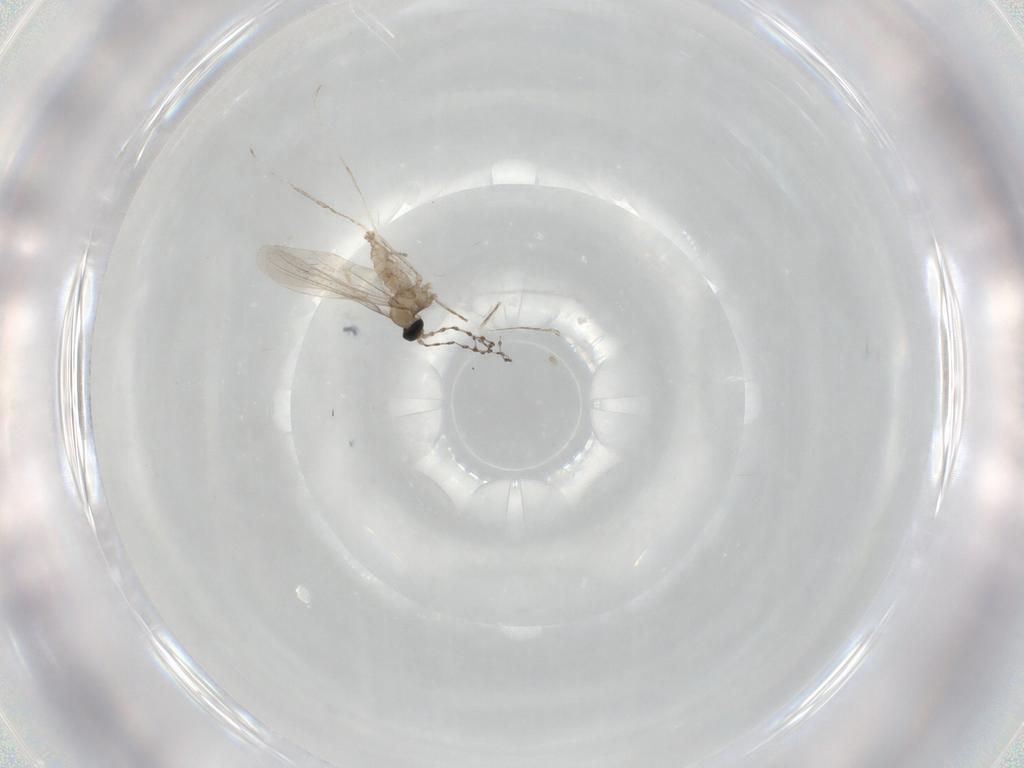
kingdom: Animalia
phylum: Arthropoda
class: Insecta
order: Diptera
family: Cecidomyiidae
